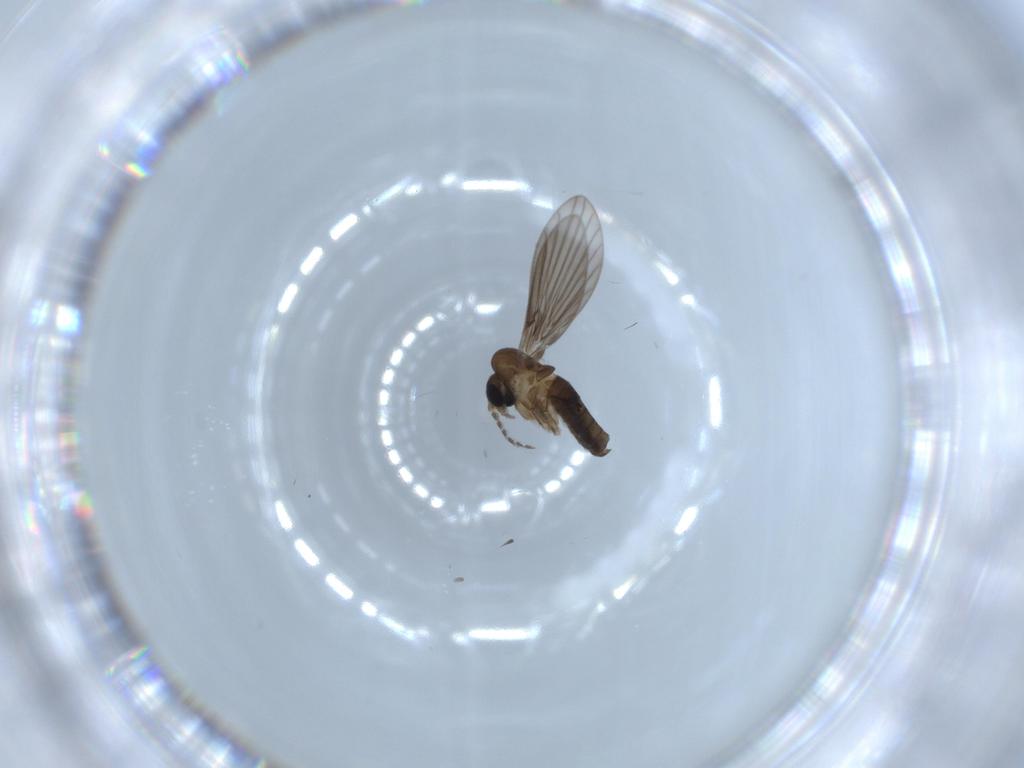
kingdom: Animalia
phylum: Arthropoda
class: Insecta
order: Diptera
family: Psychodidae
